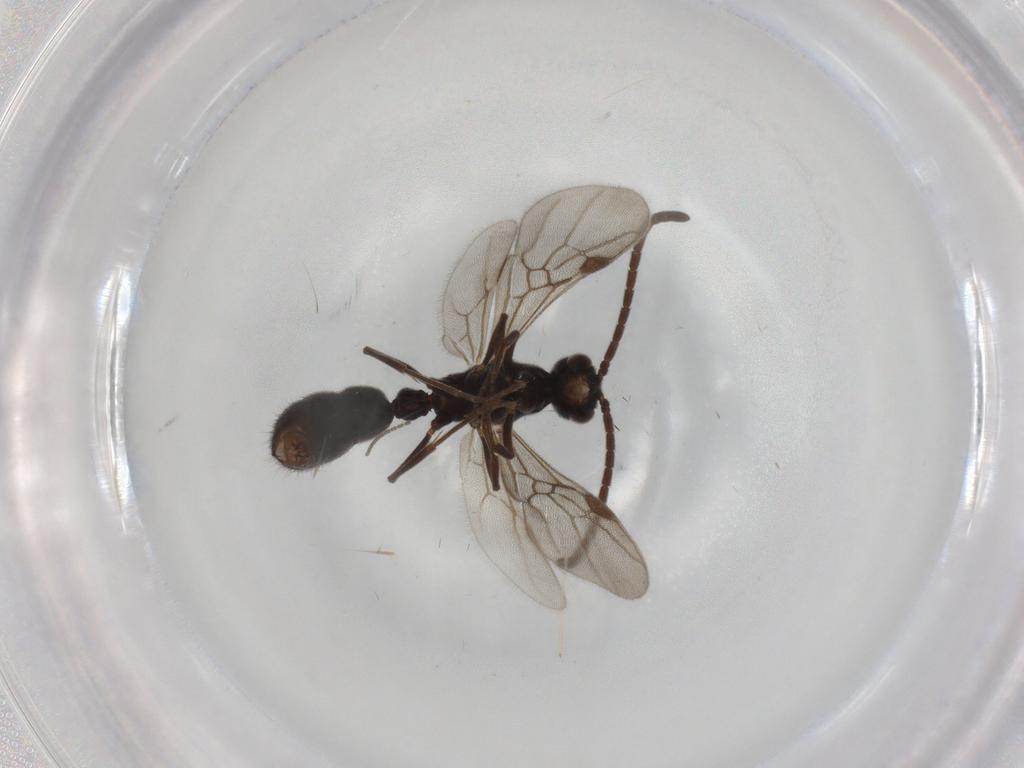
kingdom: Animalia
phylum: Arthropoda
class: Insecta
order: Hymenoptera
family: Formicidae
